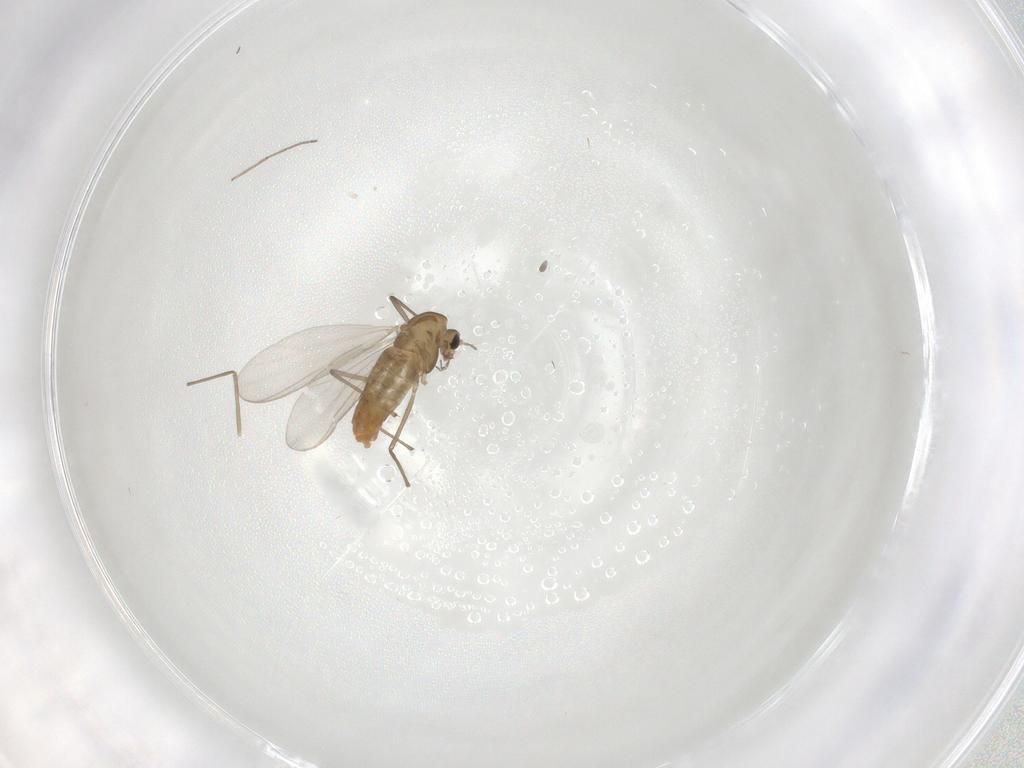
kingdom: Animalia
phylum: Arthropoda
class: Insecta
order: Diptera
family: Chironomidae
